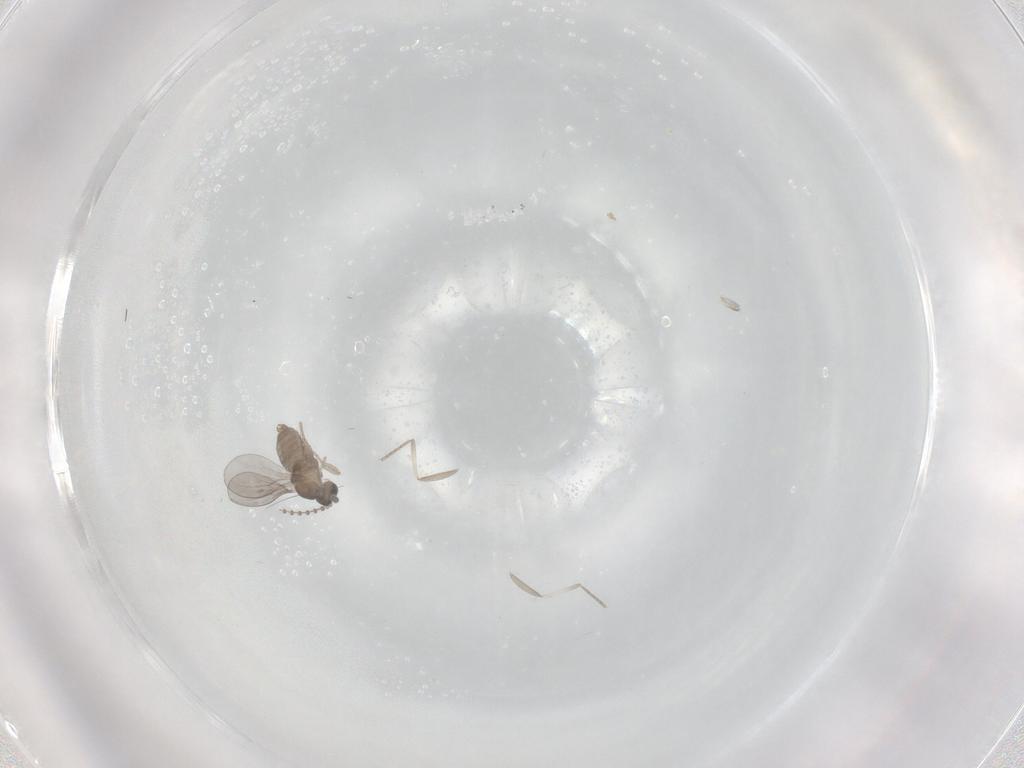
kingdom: Animalia
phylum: Arthropoda
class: Insecta
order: Diptera
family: Cecidomyiidae
